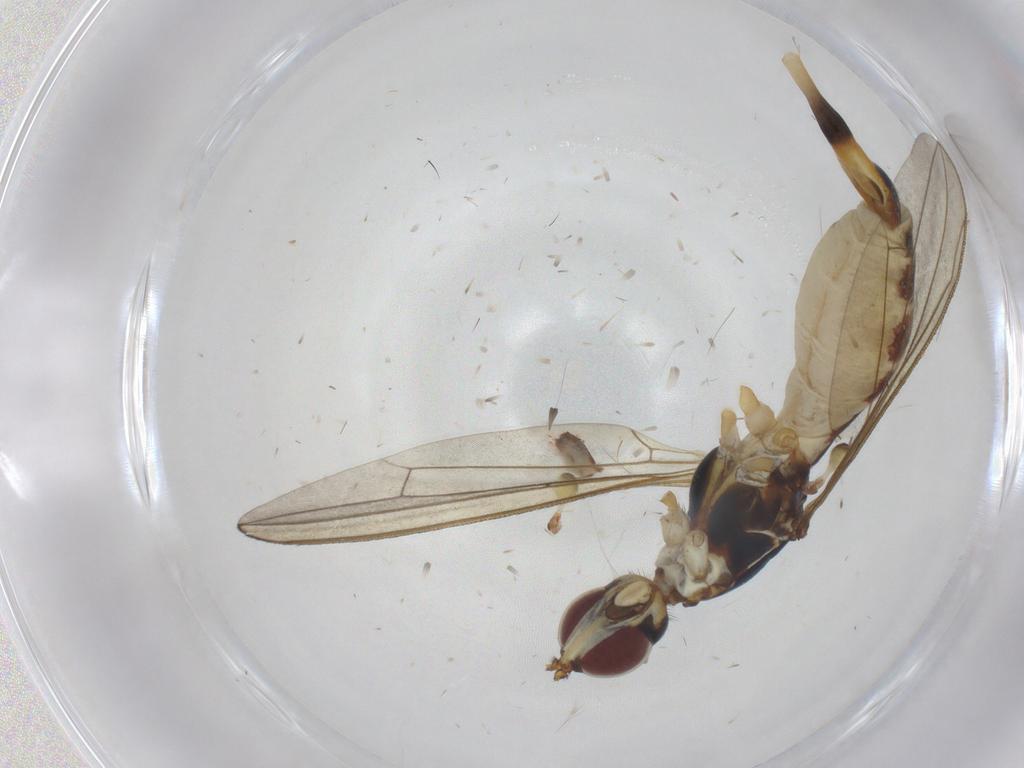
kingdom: Animalia
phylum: Arthropoda
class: Insecta
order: Diptera
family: Micropezidae
